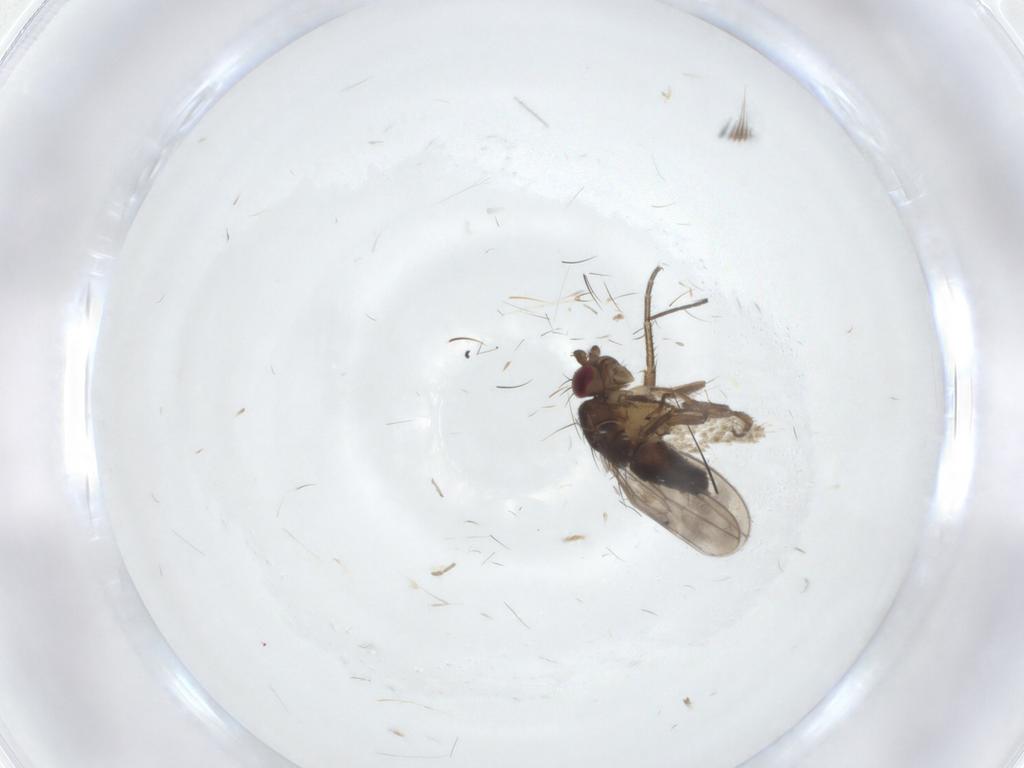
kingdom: Animalia
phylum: Arthropoda
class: Insecta
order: Diptera
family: Sphaeroceridae
